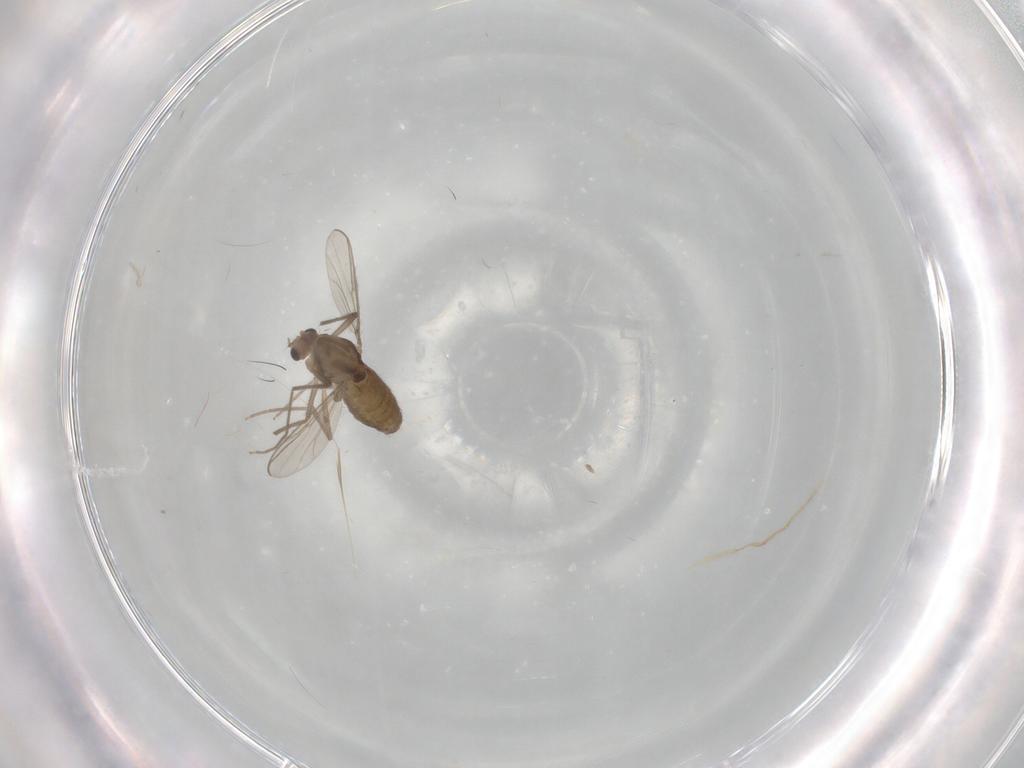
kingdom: Animalia
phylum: Arthropoda
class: Insecta
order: Diptera
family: Chironomidae
